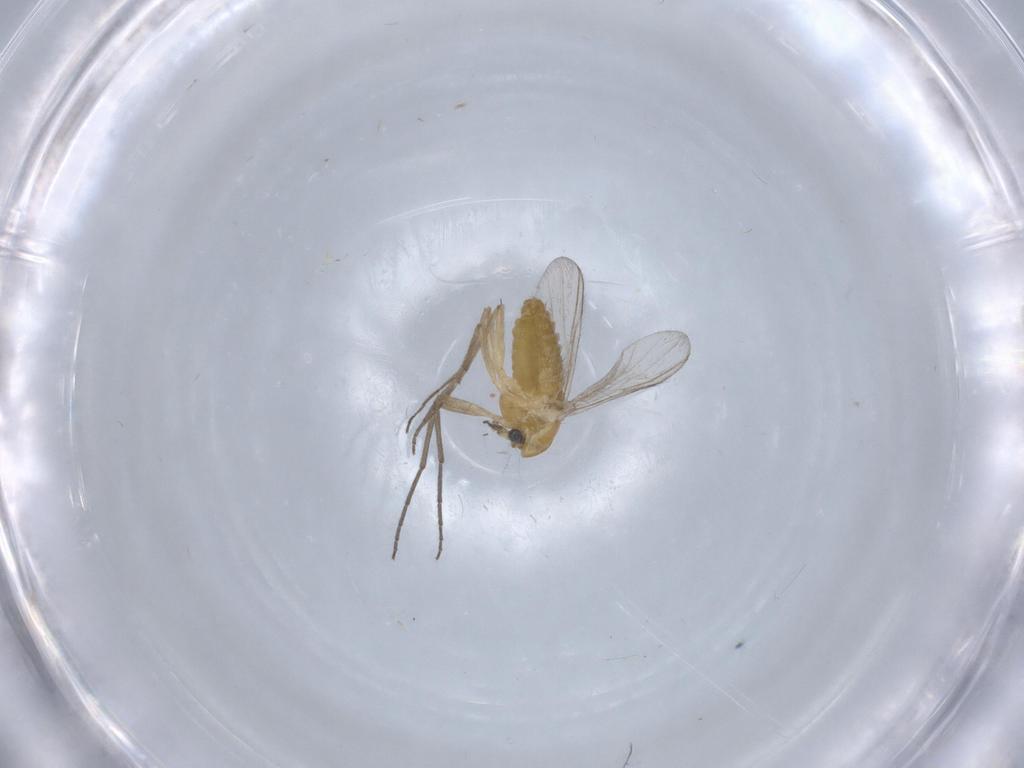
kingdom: Animalia
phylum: Arthropoda
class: Insecta
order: Diptera
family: Chironomidae
